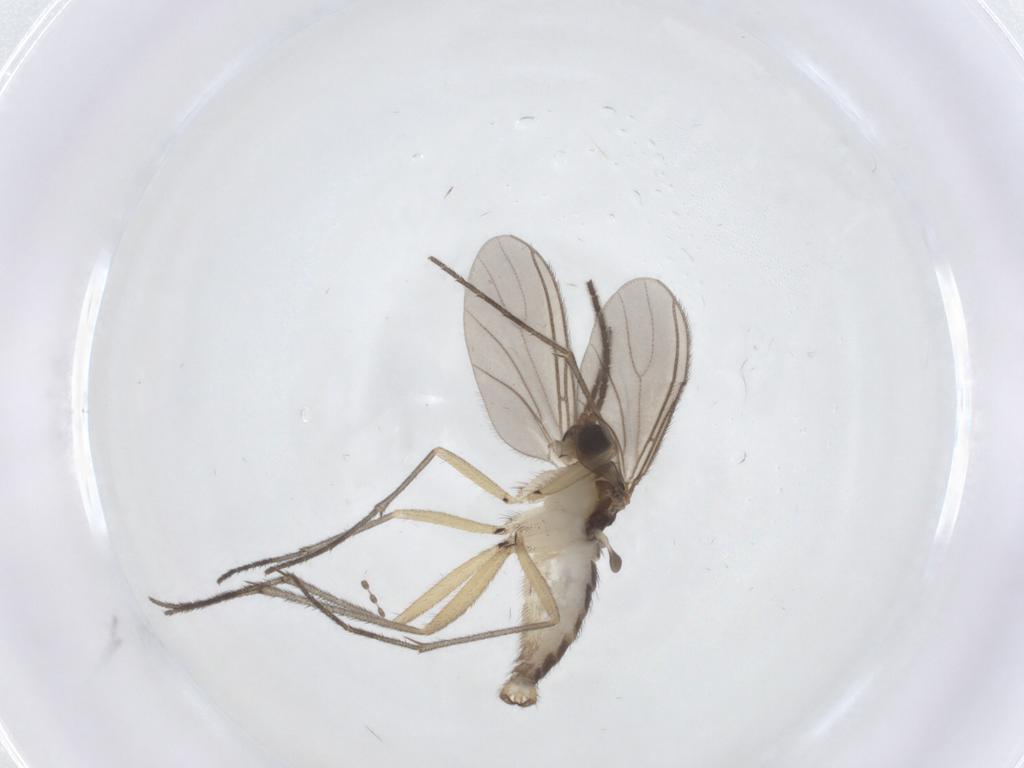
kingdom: Animalia
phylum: Arthropoda
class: Insecta
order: Diptera
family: Sciaridae
